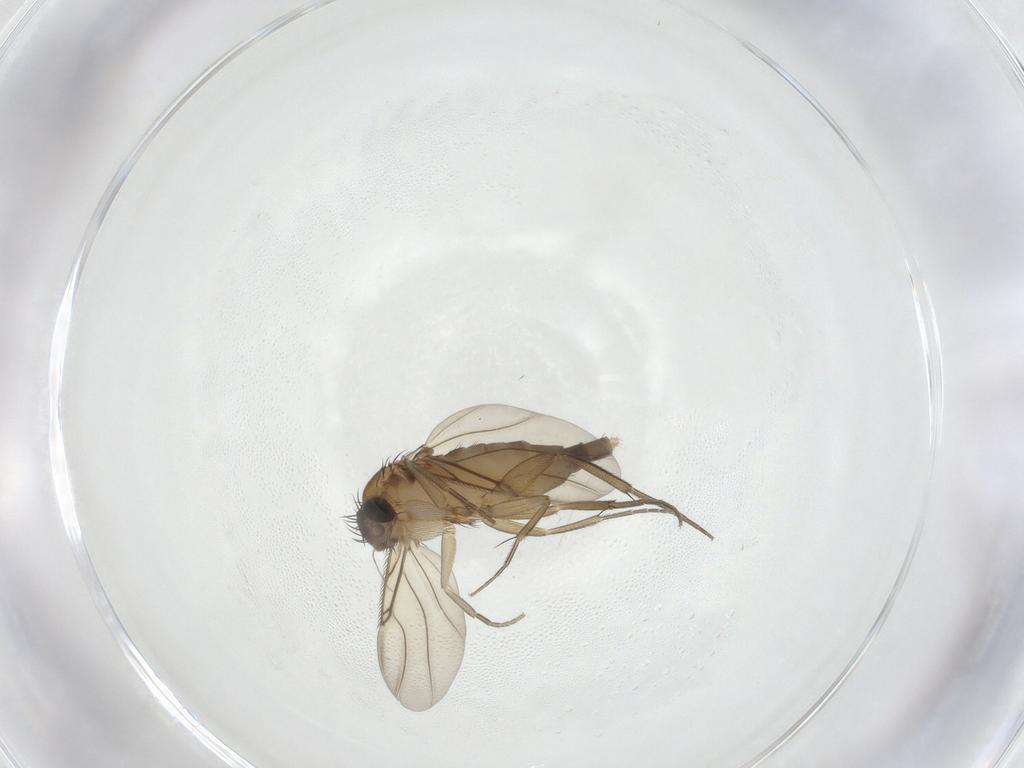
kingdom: Animalia
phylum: Arthropoda
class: Insecta
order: Diptera
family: Phoridae
